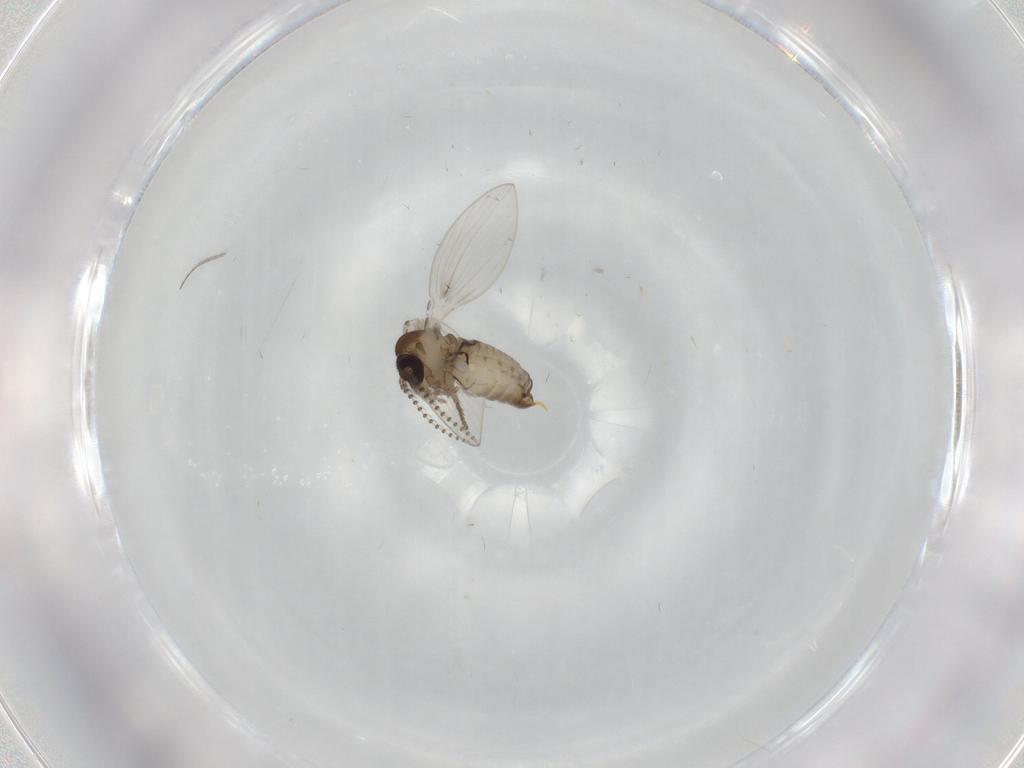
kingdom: Animalia
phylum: Arthropoda
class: Insecta
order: Diptera
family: Psychodidae
